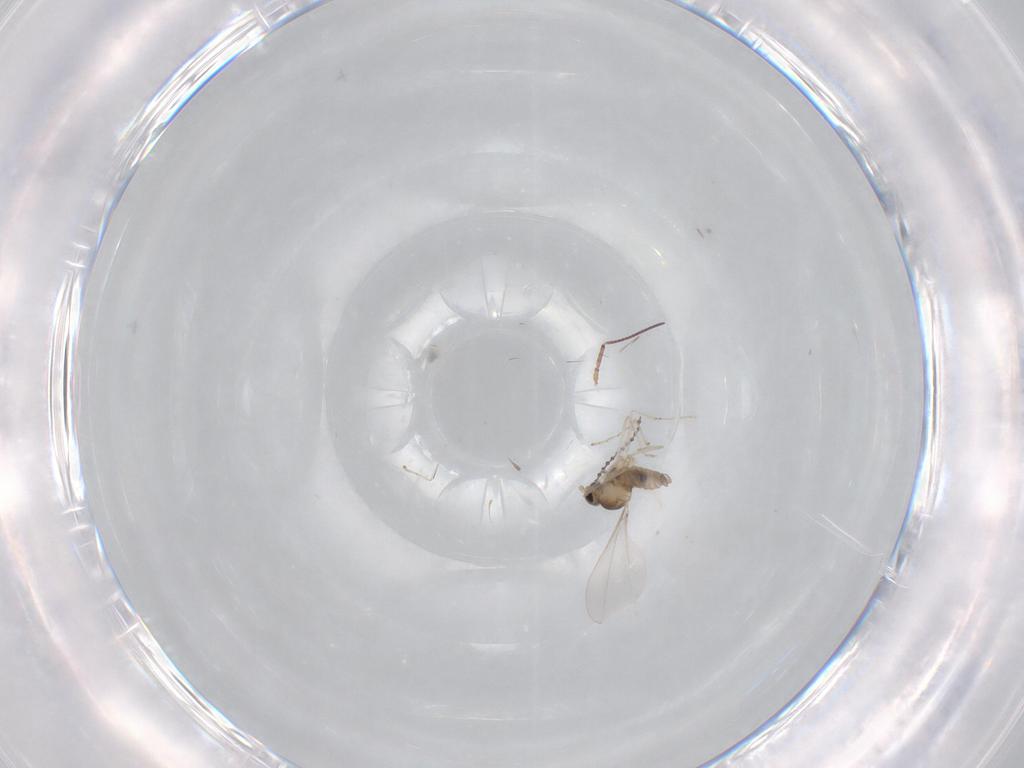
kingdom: Animalia
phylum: Arthropoda
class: Insecta
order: Diptera
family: Cecidomyiidae
